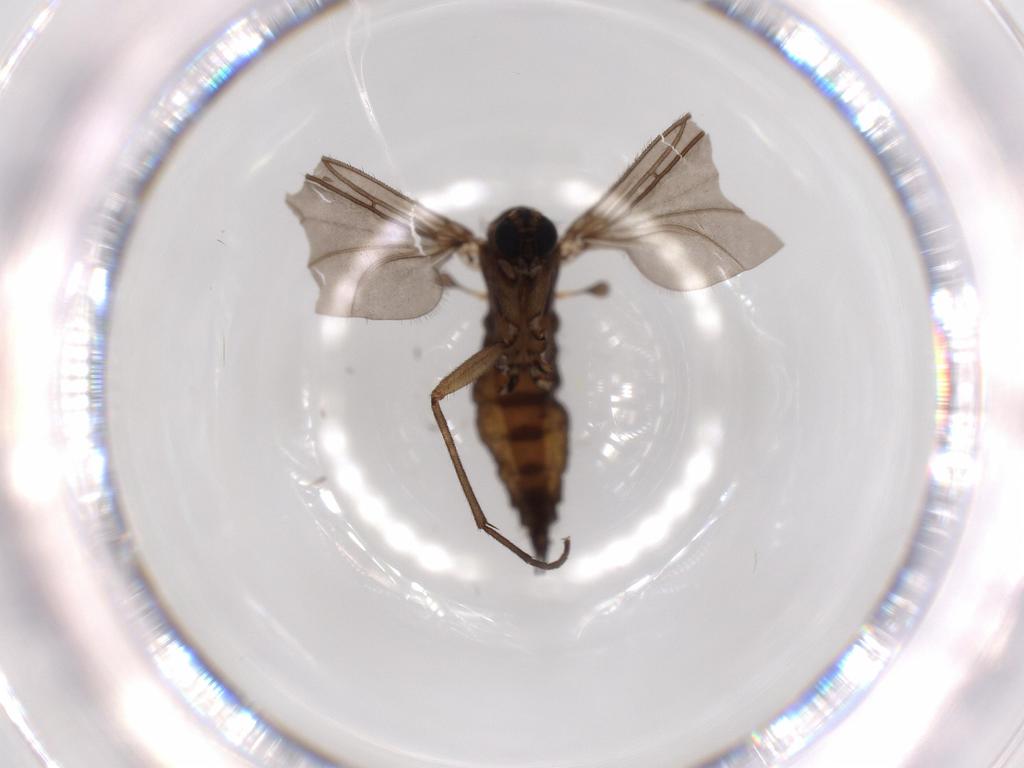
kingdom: Animalia
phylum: Arthropoda
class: Insecta
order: Diptera
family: Sciaridae
